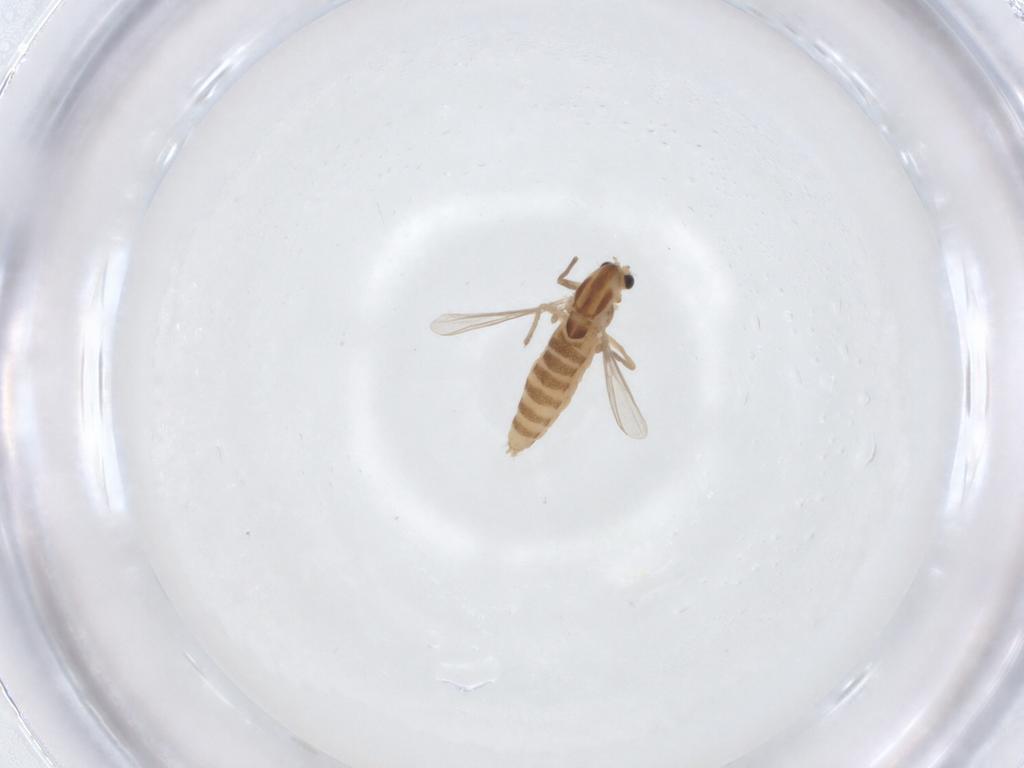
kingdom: Animalia
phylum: Arthropoda
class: Insecta
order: Diptera
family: Chironomidae
